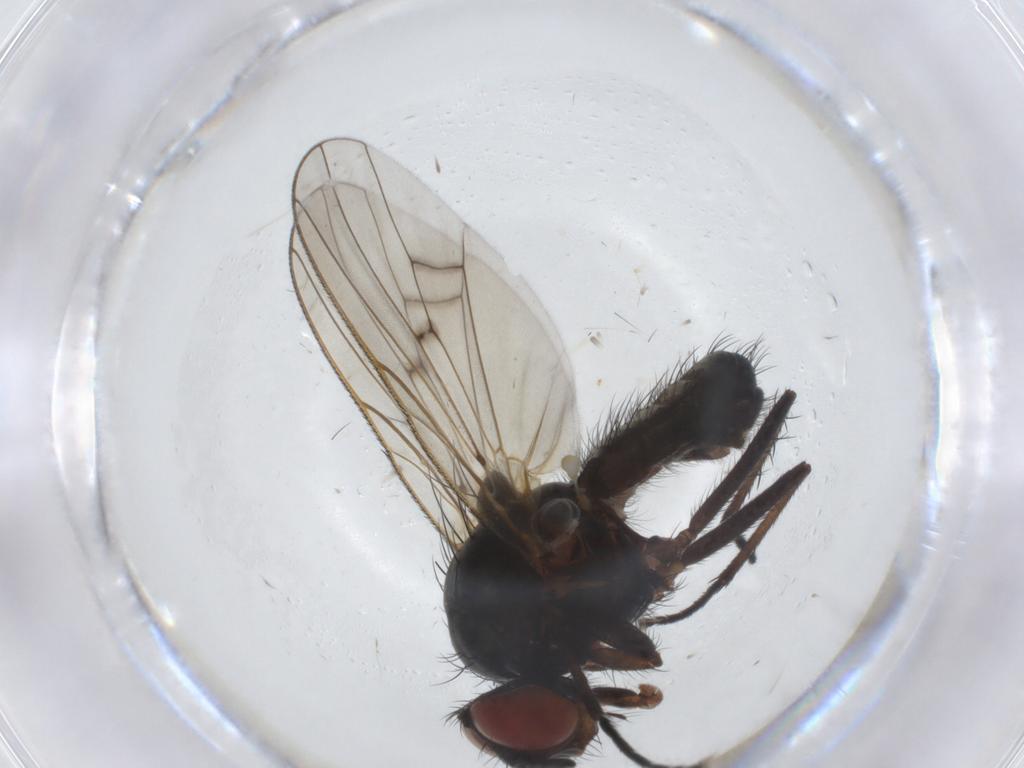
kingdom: Animalia
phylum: Arthropoda
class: Insecta
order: Diptera
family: Anthomyiidae
